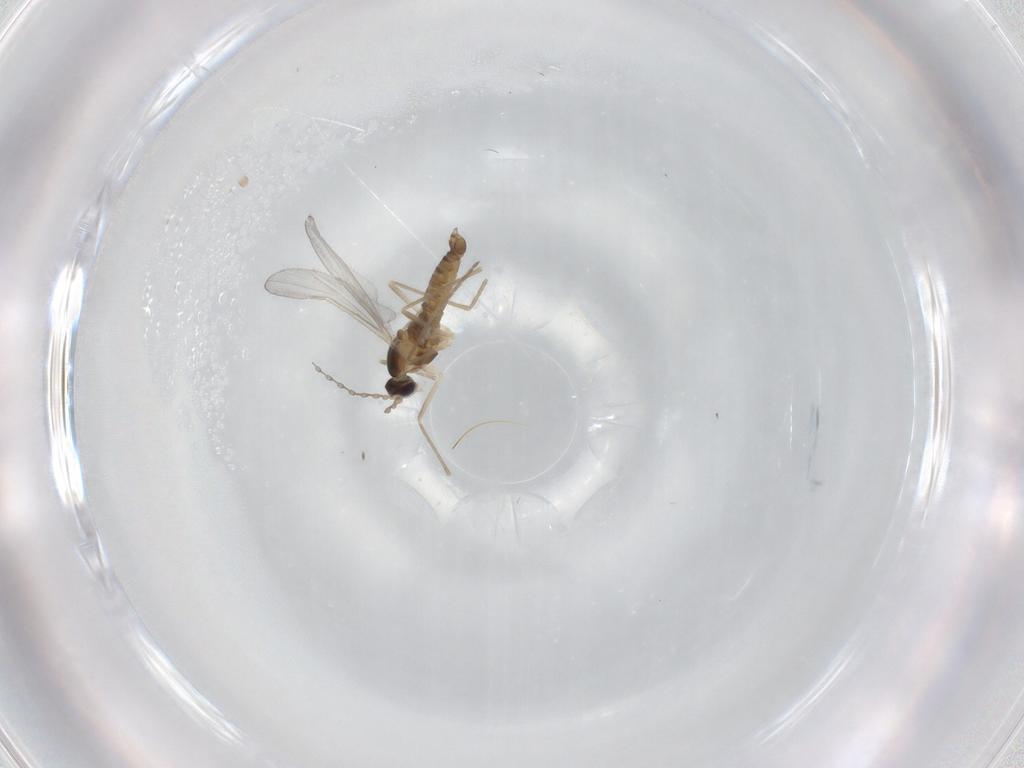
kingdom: Animalia
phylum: Arthropoda
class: Insecta
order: Diptera
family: Cecidomyiidae
